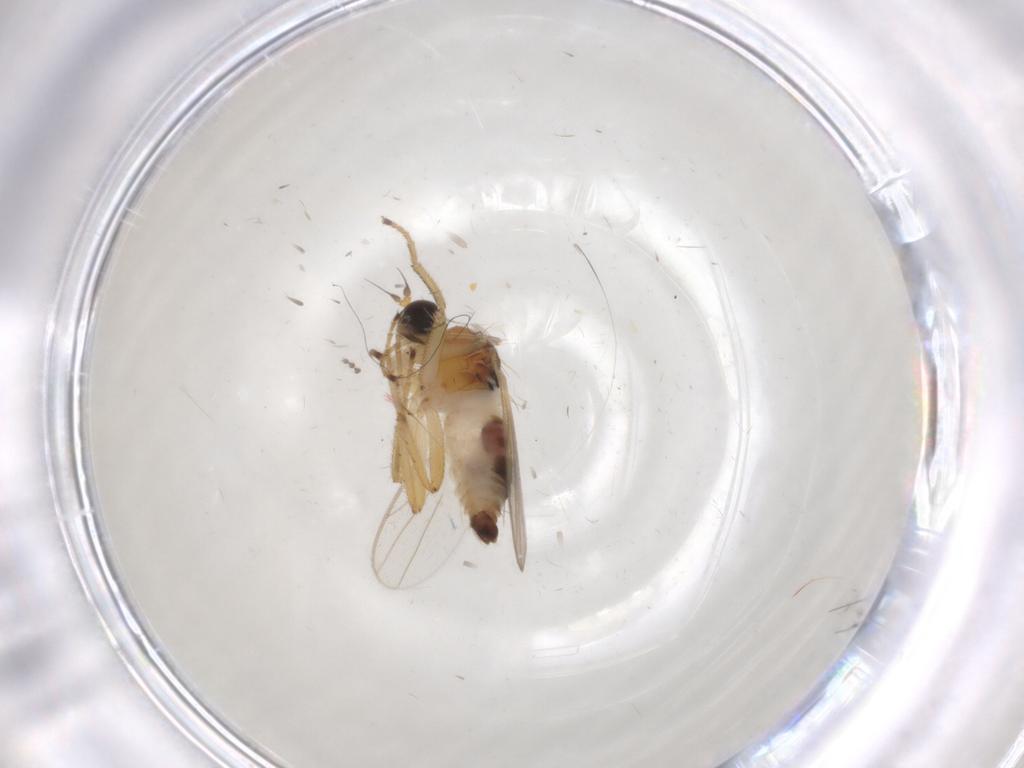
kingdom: Animalia
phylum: Arthropoda
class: Insecta
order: Diptera
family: Hybotidae
